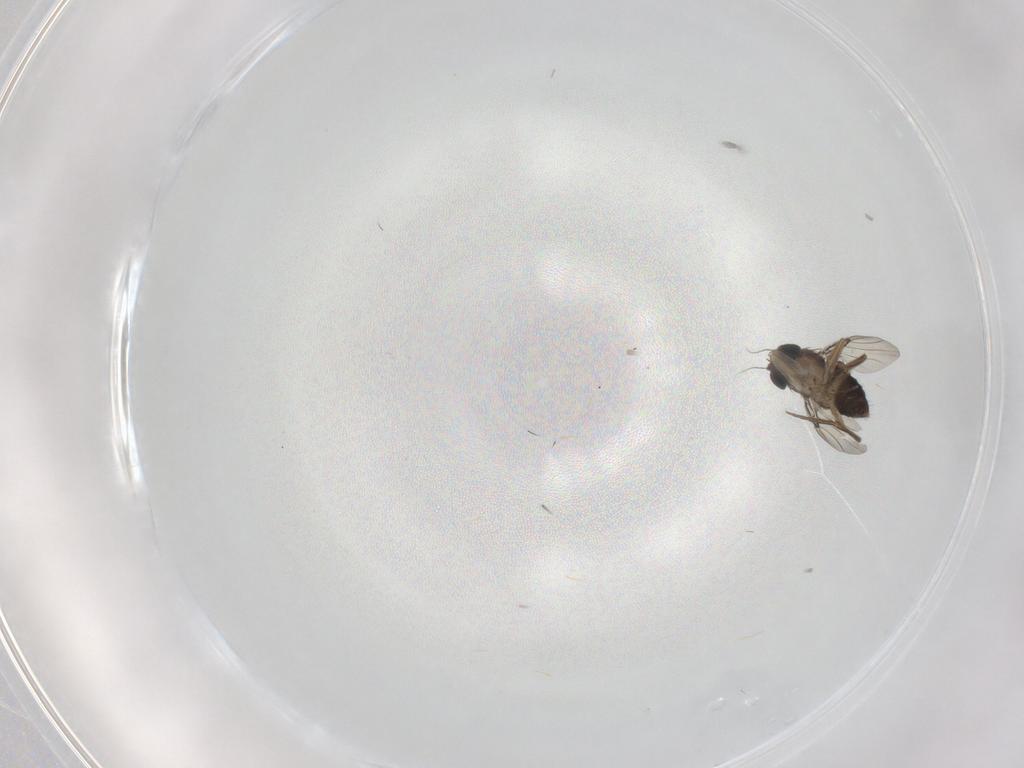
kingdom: Animalia
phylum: Arthropoda
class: Insecta
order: Diptera
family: Phoridae
